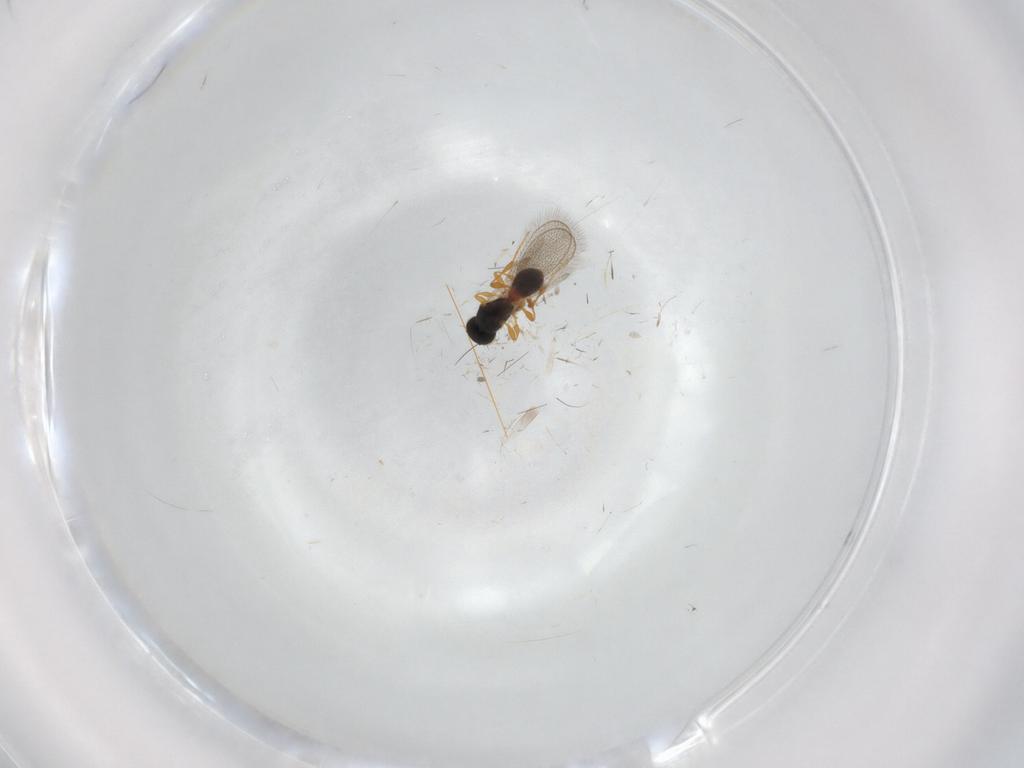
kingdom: Animalia
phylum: Arthropoda
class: Insecta
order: Hymenoptera
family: Platygastridae
